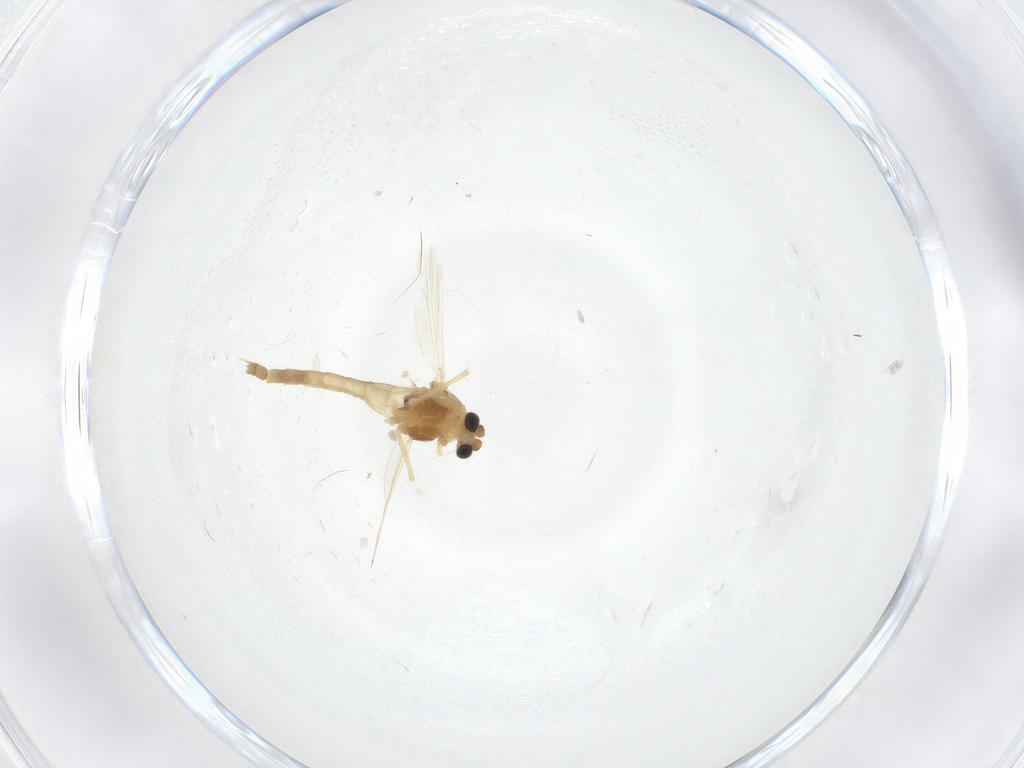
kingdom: Animalia
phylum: Arthropoda
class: Insecta
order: Diptera
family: Chironomidae
